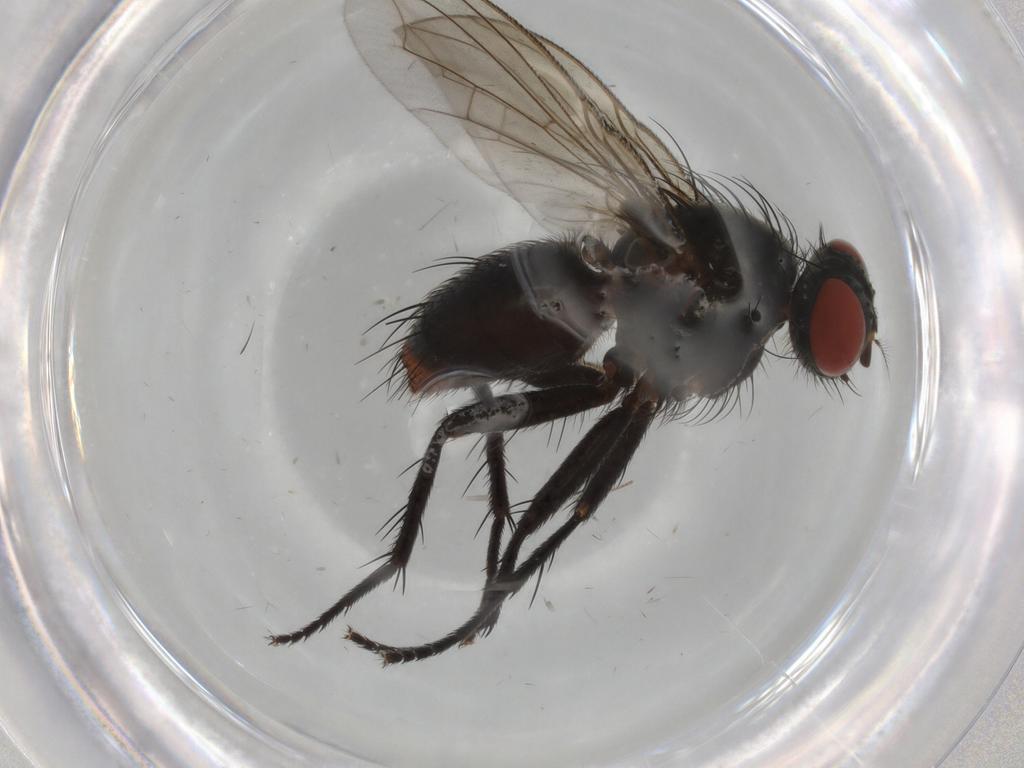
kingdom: Animalia
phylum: Arthropoda
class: Insecta
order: Diptera
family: Sarcophagidae
